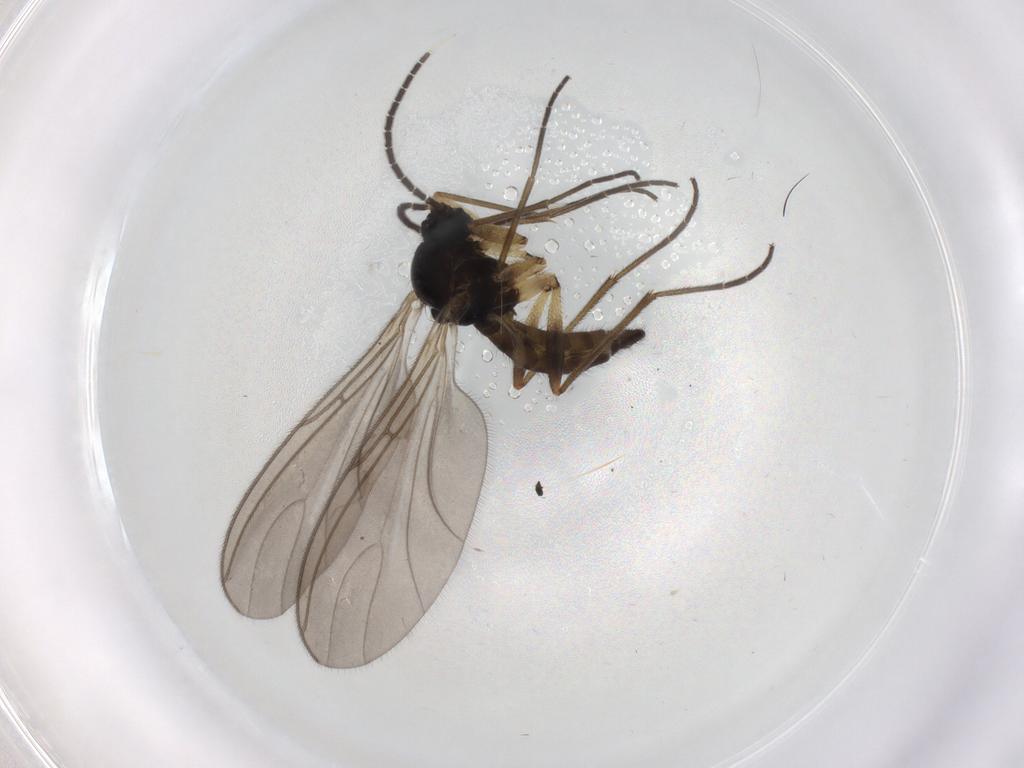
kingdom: Animalia
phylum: Arthropoda
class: Insecta
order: Diptera
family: Sciaridae
